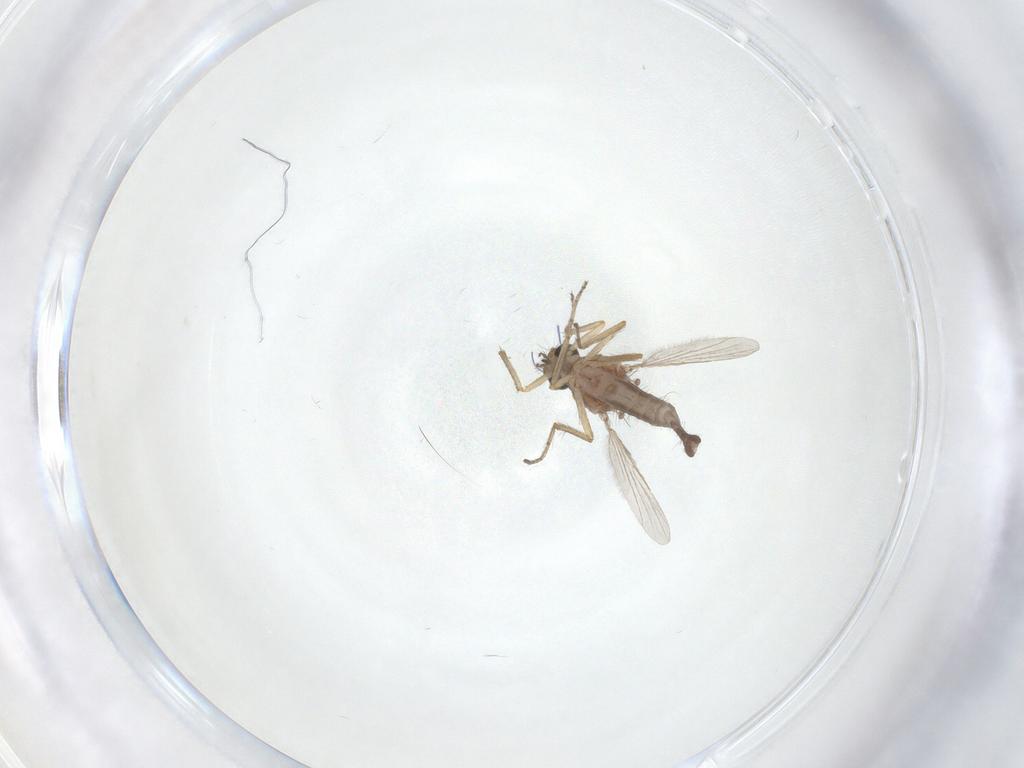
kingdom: Animalia
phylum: Arthropoda
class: Insecta
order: Diptera
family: Ceratopogonidae
